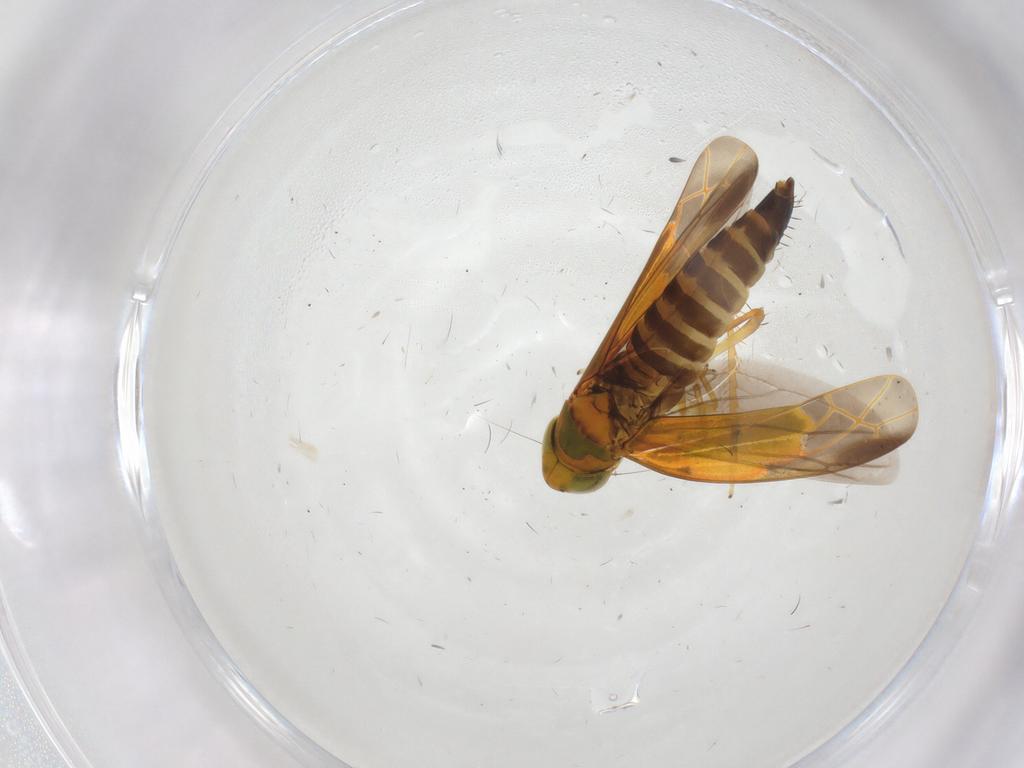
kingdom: Animalia
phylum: Arthropoda
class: Insecta
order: Hemiptera
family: Cicadellidae
